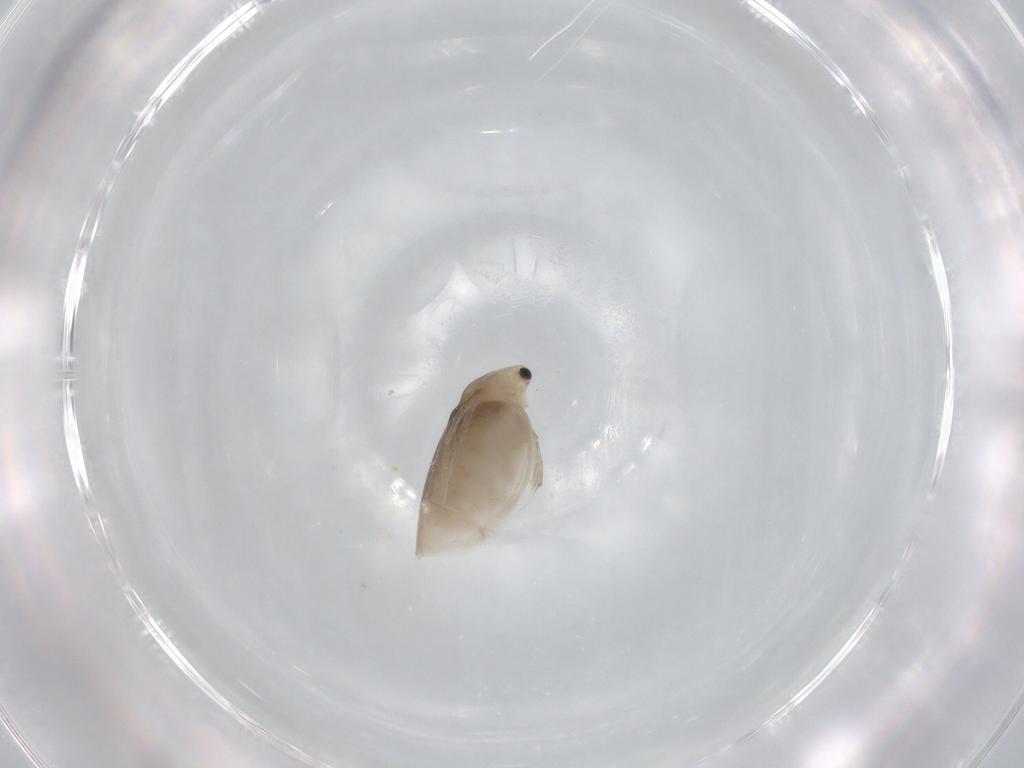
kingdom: Animalia
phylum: Arthropoda
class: Branchiopoda
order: Diplostraca
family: Daphniidae
